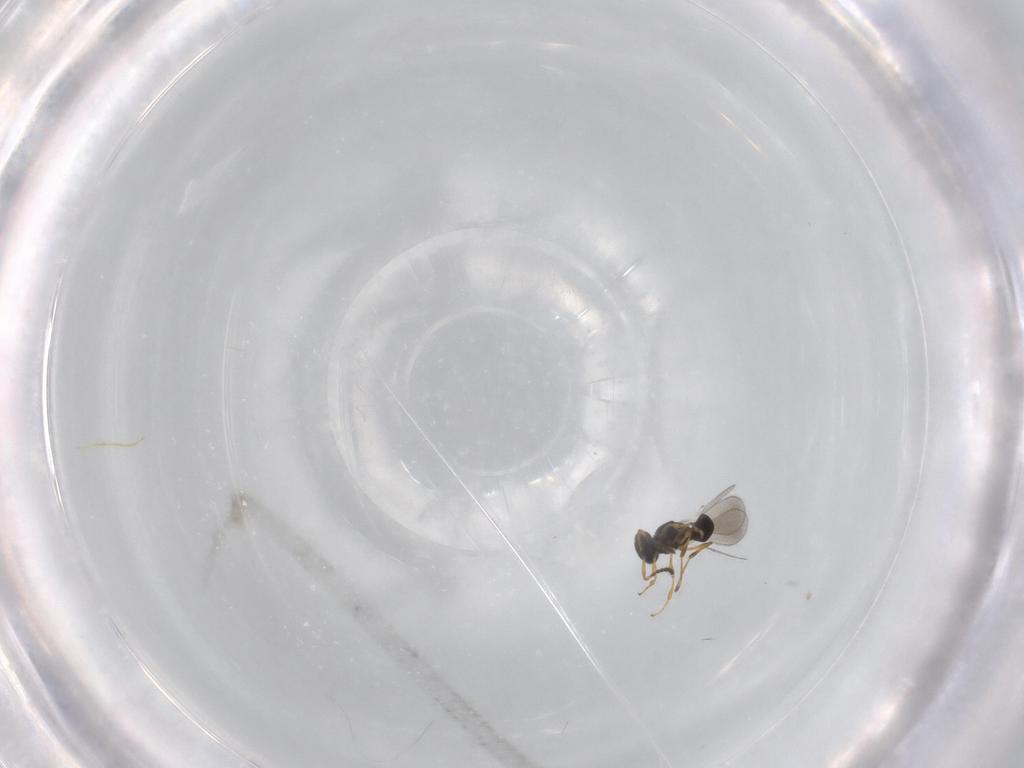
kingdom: Animalia
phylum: Arthropoda
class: Insecta
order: Hymenoptera
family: Platygastridae
